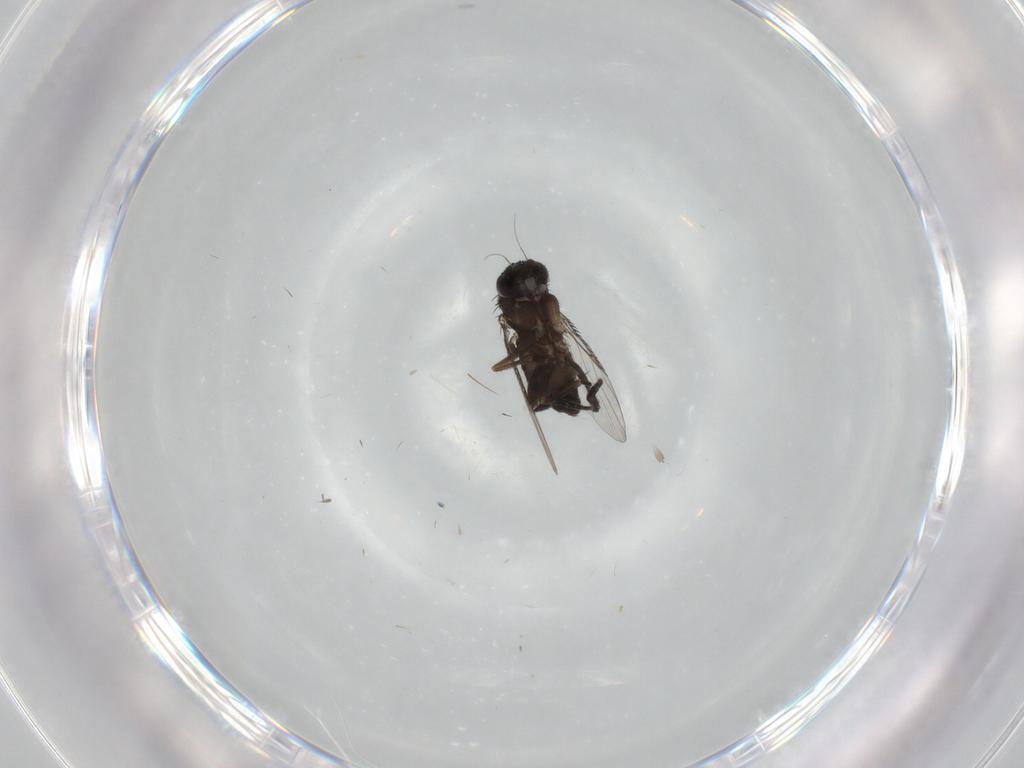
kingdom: Animalia
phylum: Arthropoda
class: Insecta
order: Diptera
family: Phoridae
